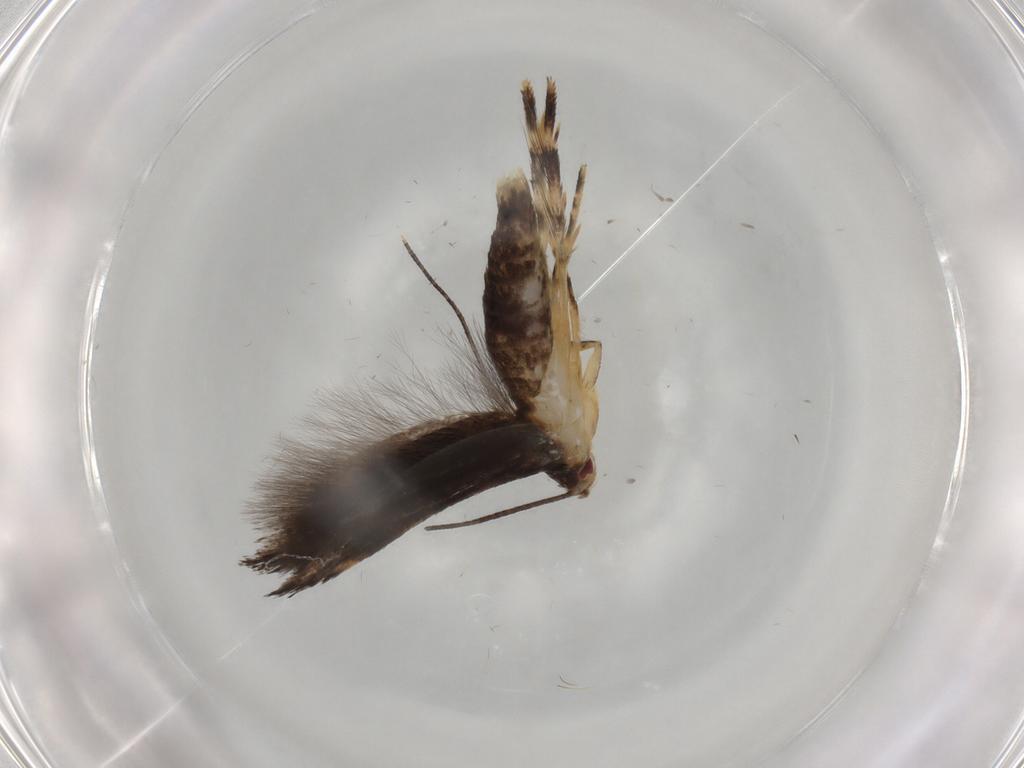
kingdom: Animalia
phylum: Arthropoda
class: Insecta
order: Lepidoptera
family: Momphidae
